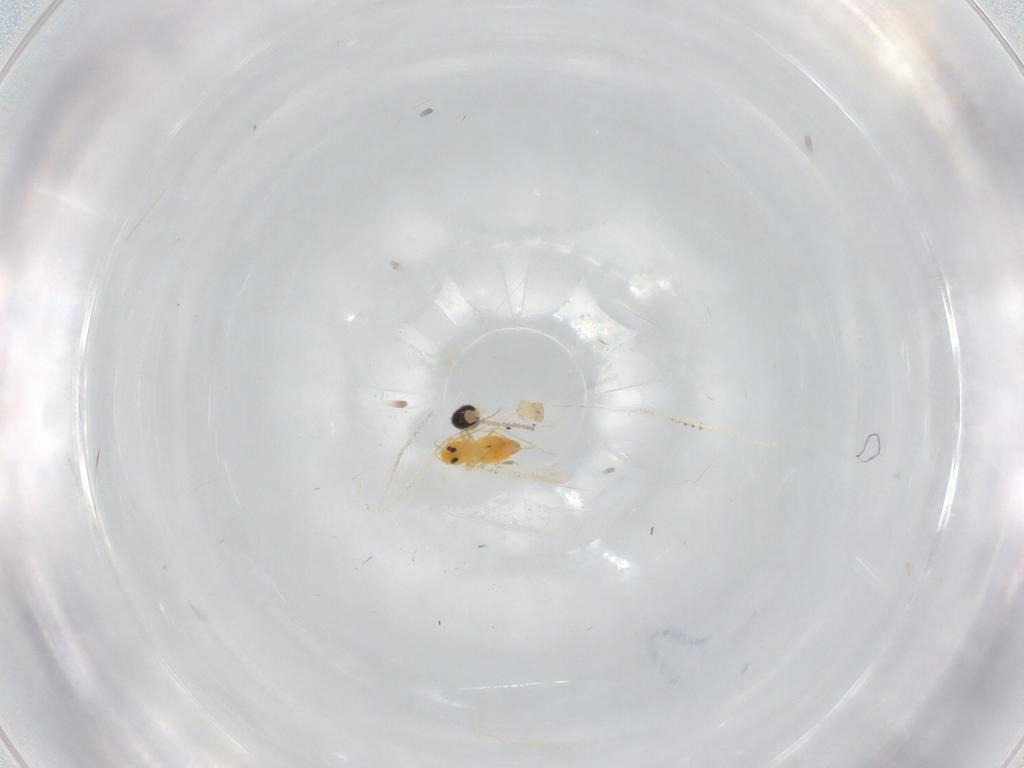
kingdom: Animalia
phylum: Arthropoda
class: Insecta
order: Hemiptera
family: Aleyrodidae
